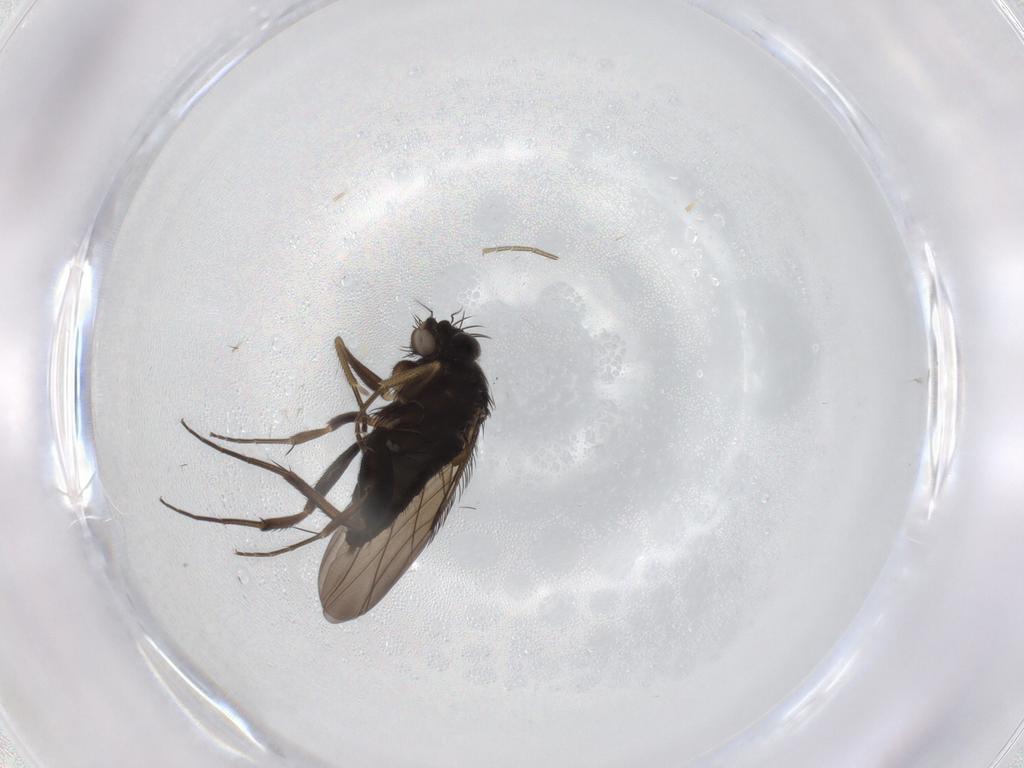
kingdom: Animalia
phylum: Arthropoda
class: Insecta
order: Diptera
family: Phoridae
